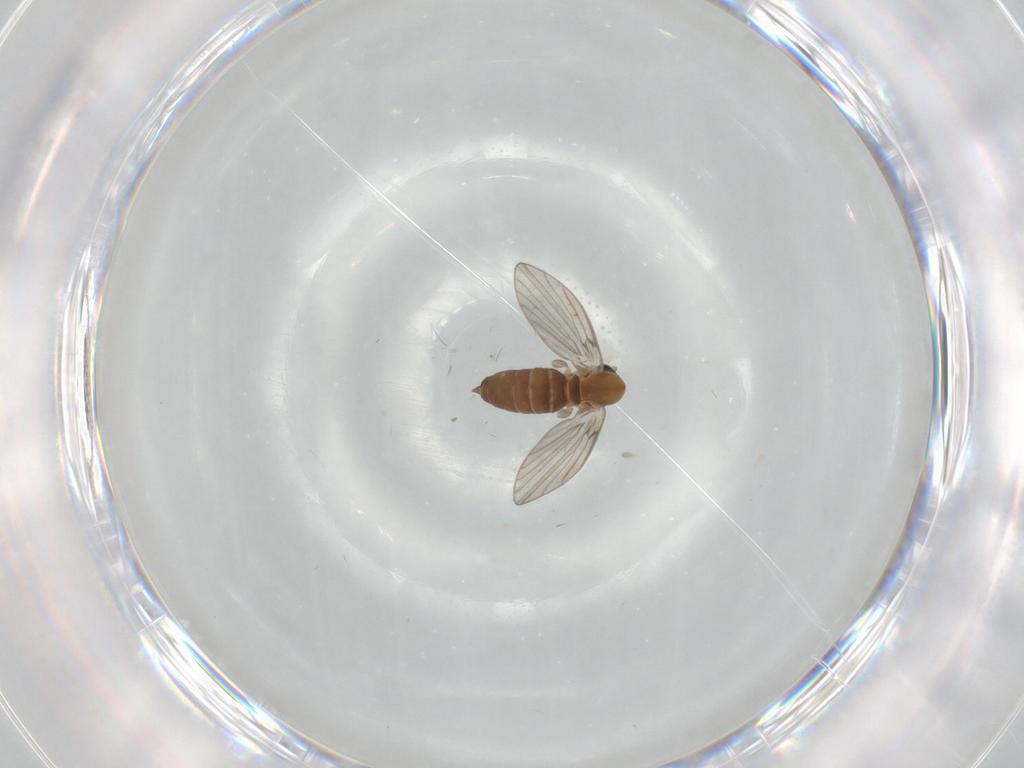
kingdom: Animalia
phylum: Arthropoda
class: Insecta
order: Diptera
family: Psychodidae
